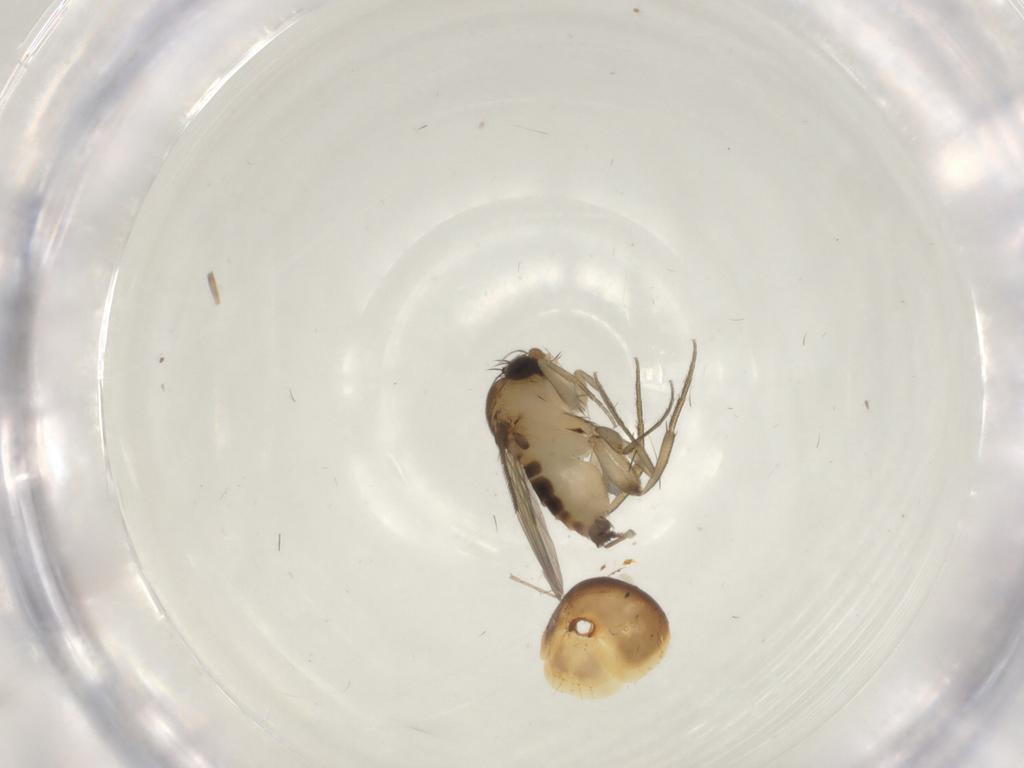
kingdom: Animalia
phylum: Arthropoda
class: Insecta
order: Diptera
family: Phoridae
